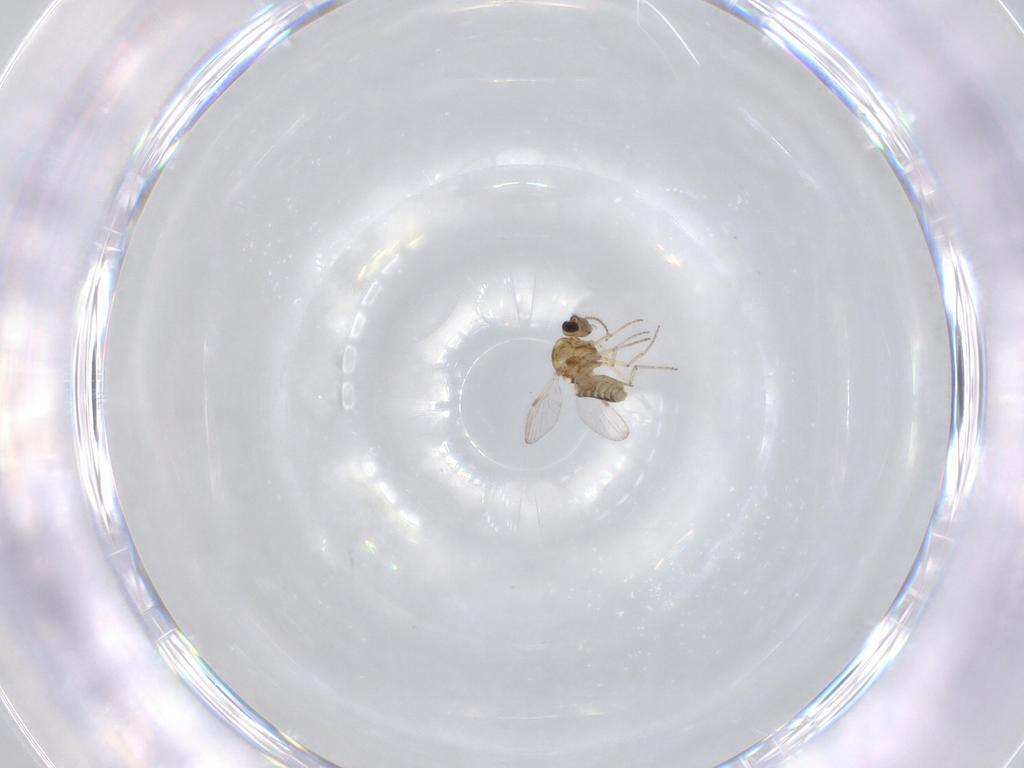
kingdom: Animalia
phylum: Arthropoda
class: Insecta
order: Diptera
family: Ceratopogonidae
